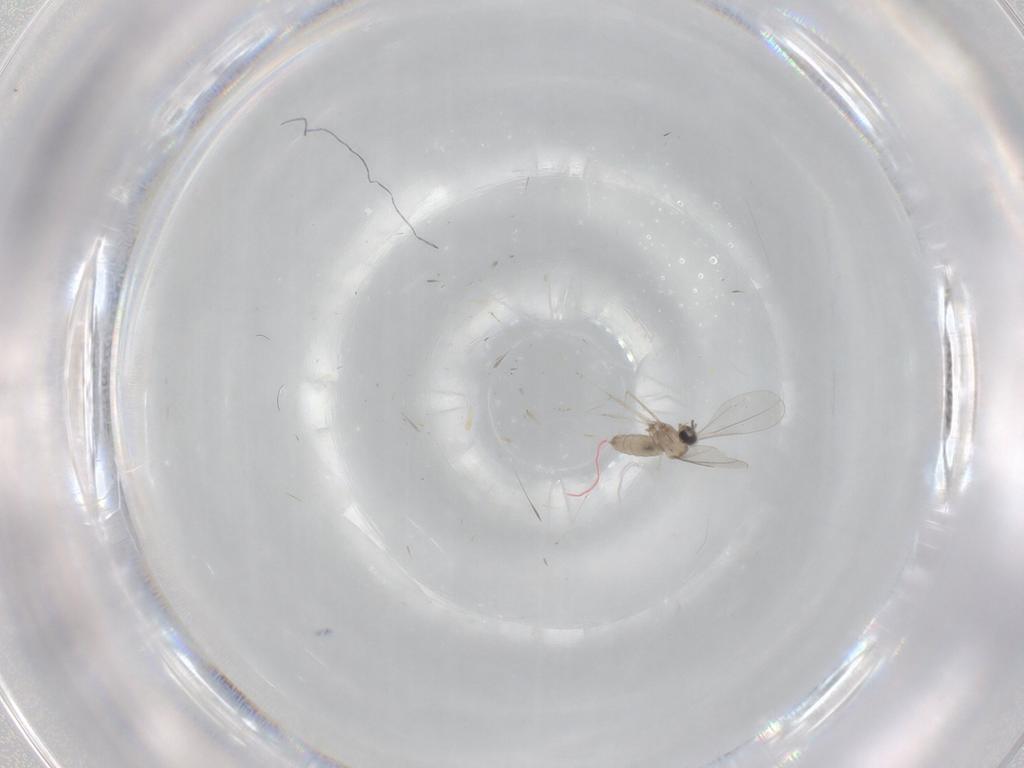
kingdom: Animalia
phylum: Arthropoda
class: Insecta
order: Diptera
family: Cecidomyiidae
